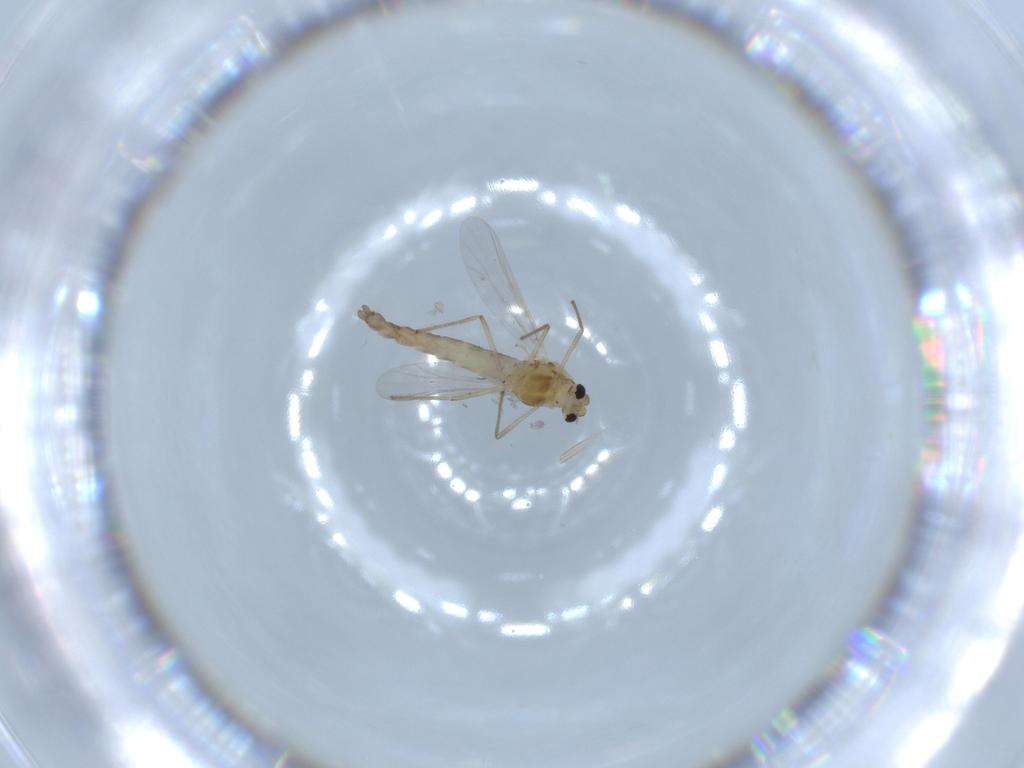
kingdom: Animalia
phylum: Arthropoda
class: Insecta
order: Diptera
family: Chironomidae
